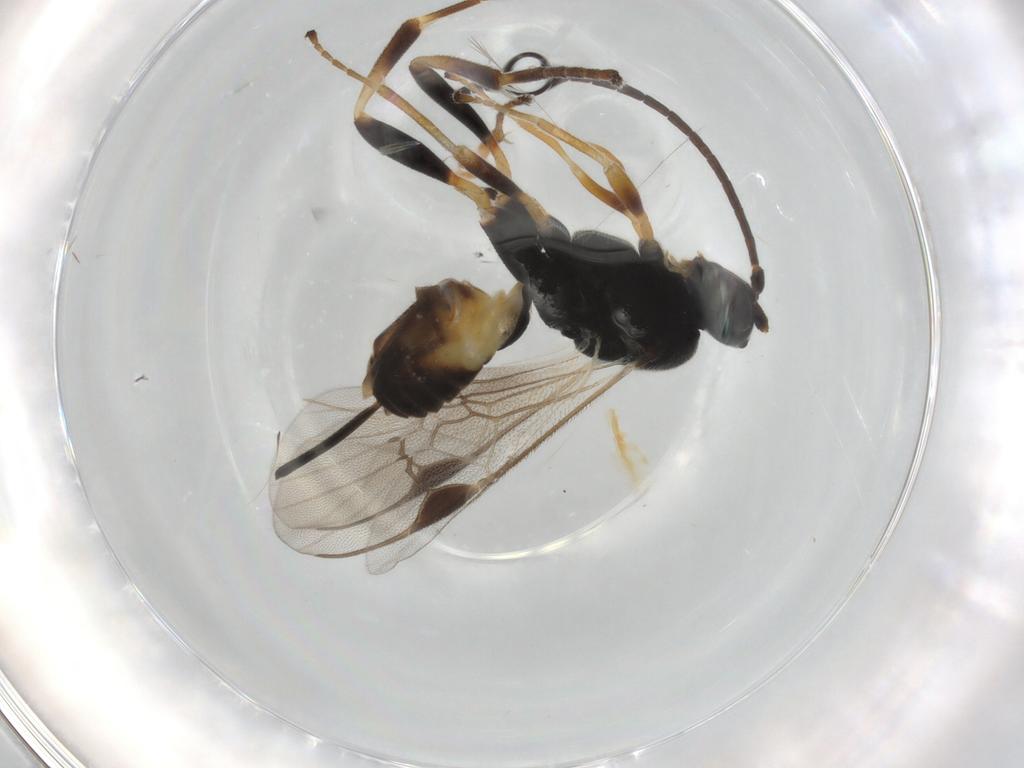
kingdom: Animalia
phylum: Arthropoda
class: Insecta
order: Hymenoptera
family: Braconidae
